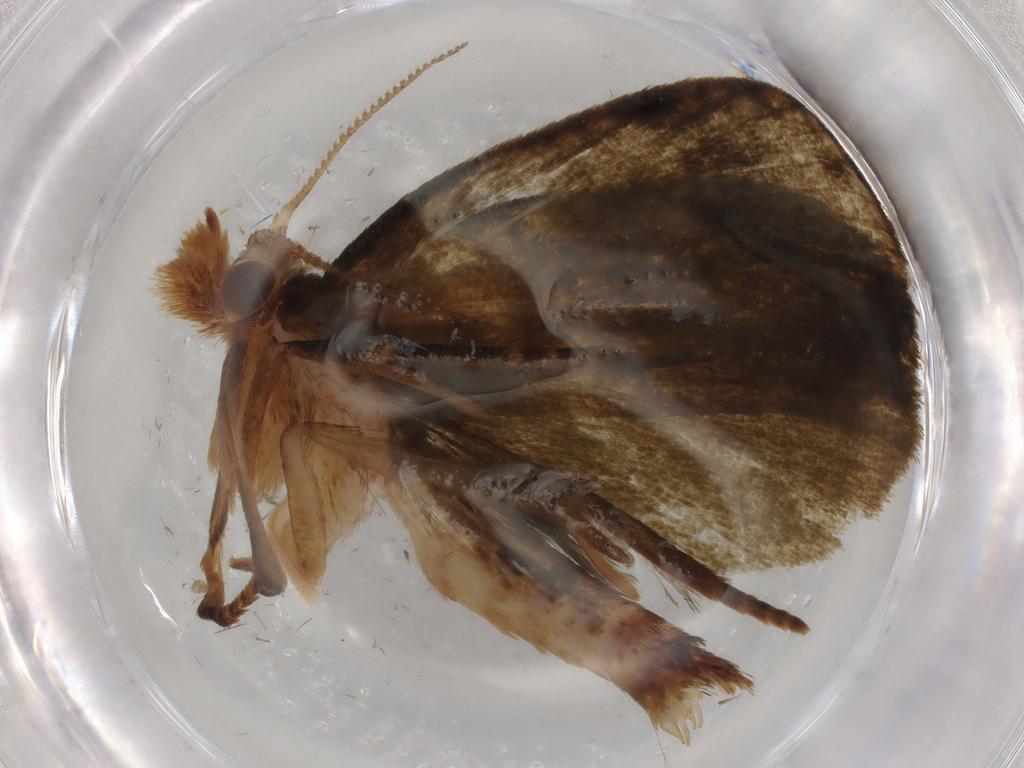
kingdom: Animalia
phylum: Arthropoda
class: Insecta
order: Lepidoptera
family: Geometridae
